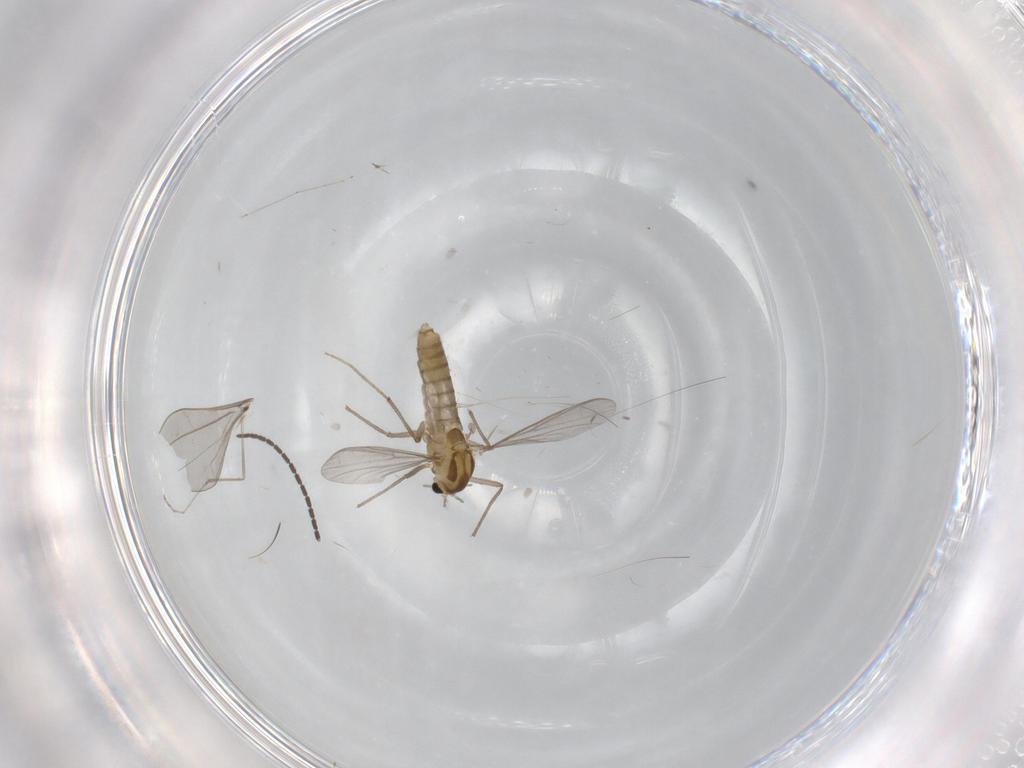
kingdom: Animalia
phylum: Arthropoda
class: Insecta
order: Diptera
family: Chironomidae
